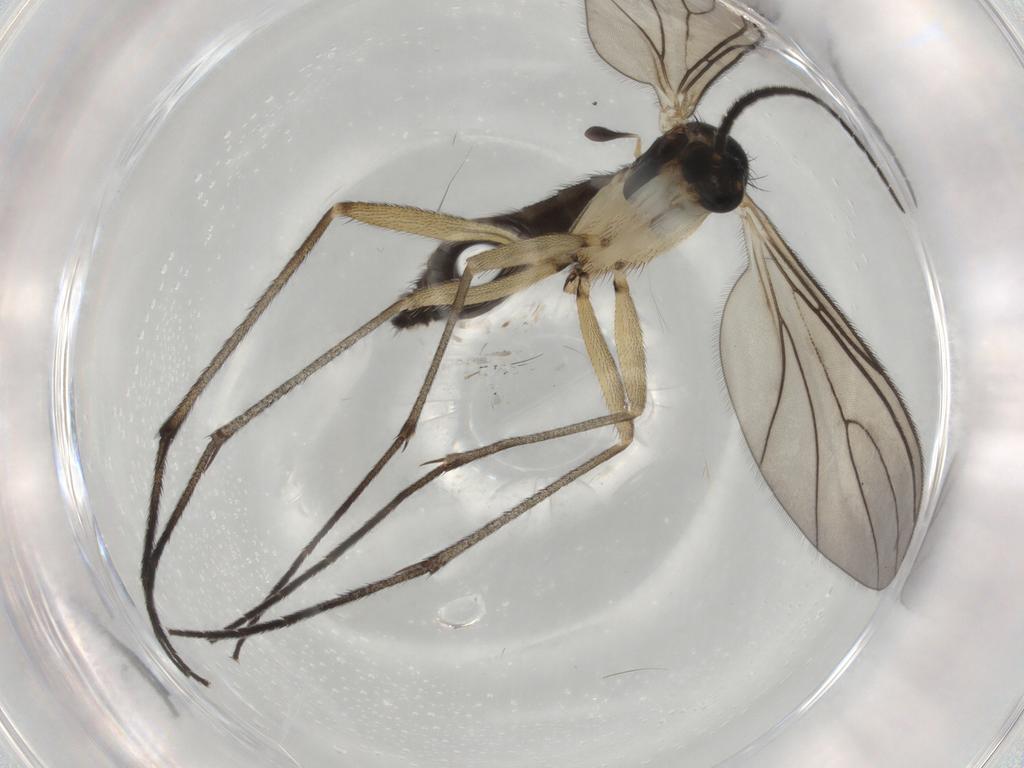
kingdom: Animalia
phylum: Arthropoda
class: Insecta
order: Diptera
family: Sciaridae
